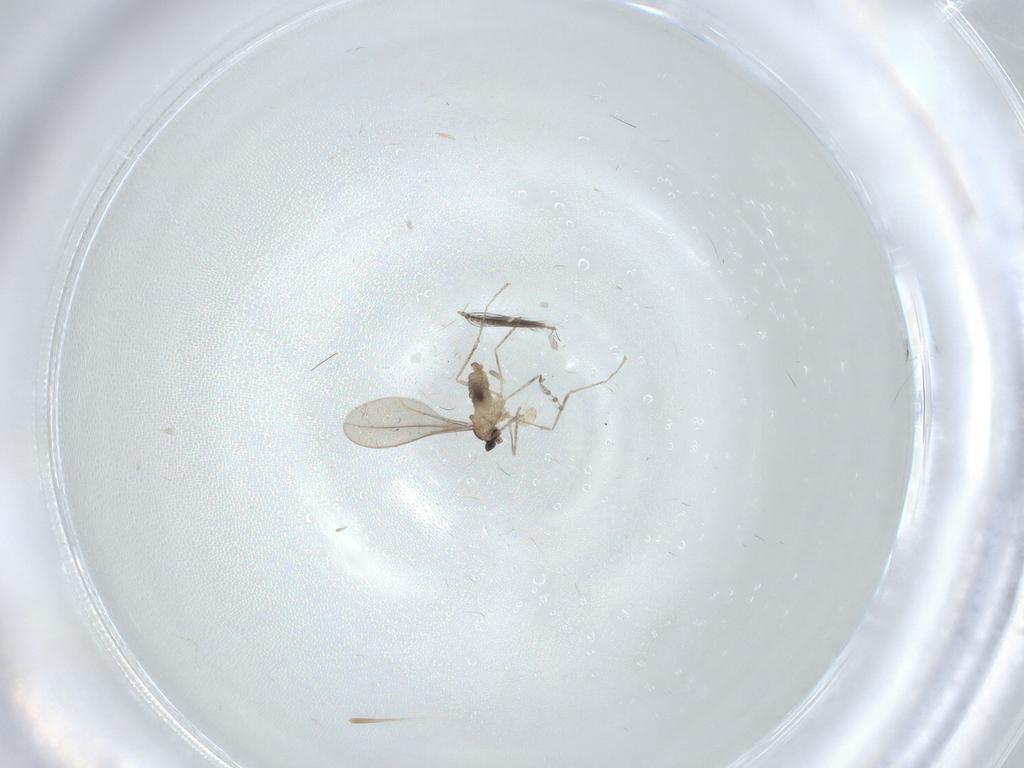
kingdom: Animalia
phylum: Arthropoda
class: Insecta
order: Diptera
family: Cecidomyiidae
